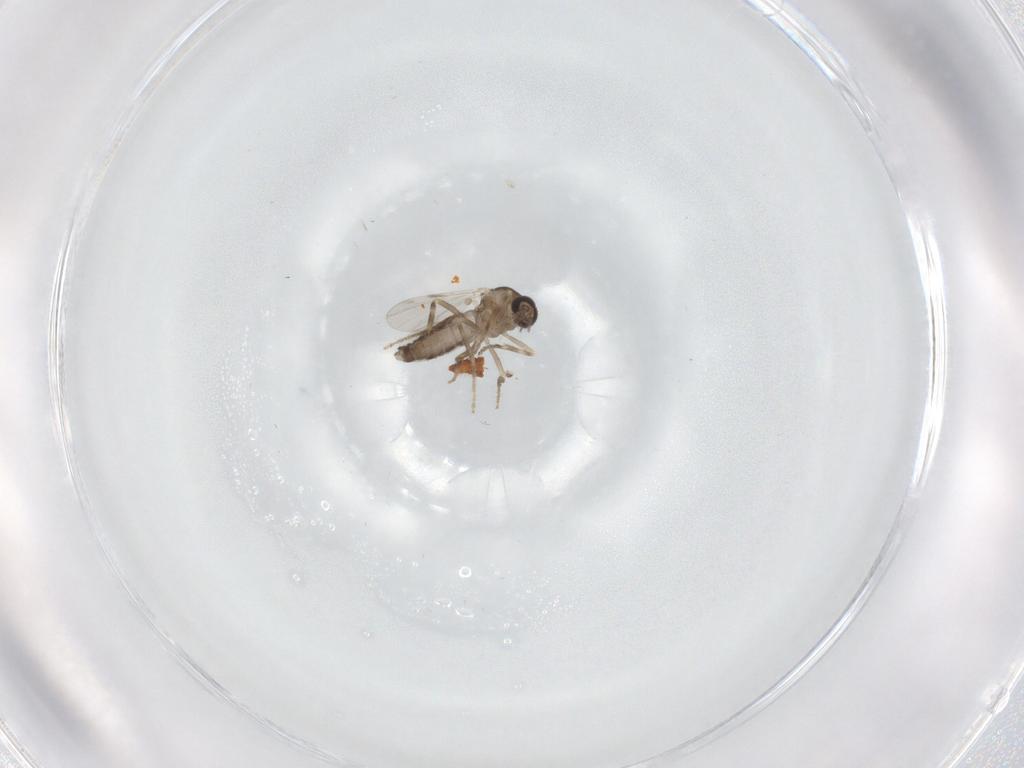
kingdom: Animalia
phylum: Arthropoda
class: Insecta
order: Diptera
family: Ceratopogonidae
